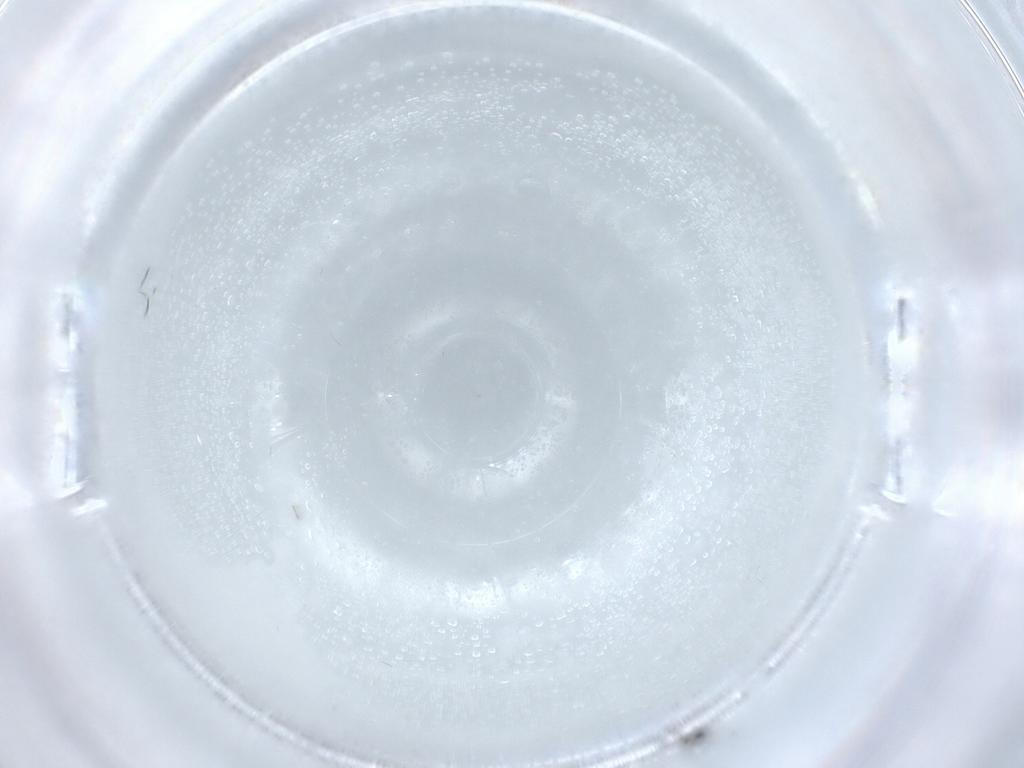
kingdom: Animalia
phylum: Arthropoda
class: Insecta
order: Hymenoptera
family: Mymaridae
